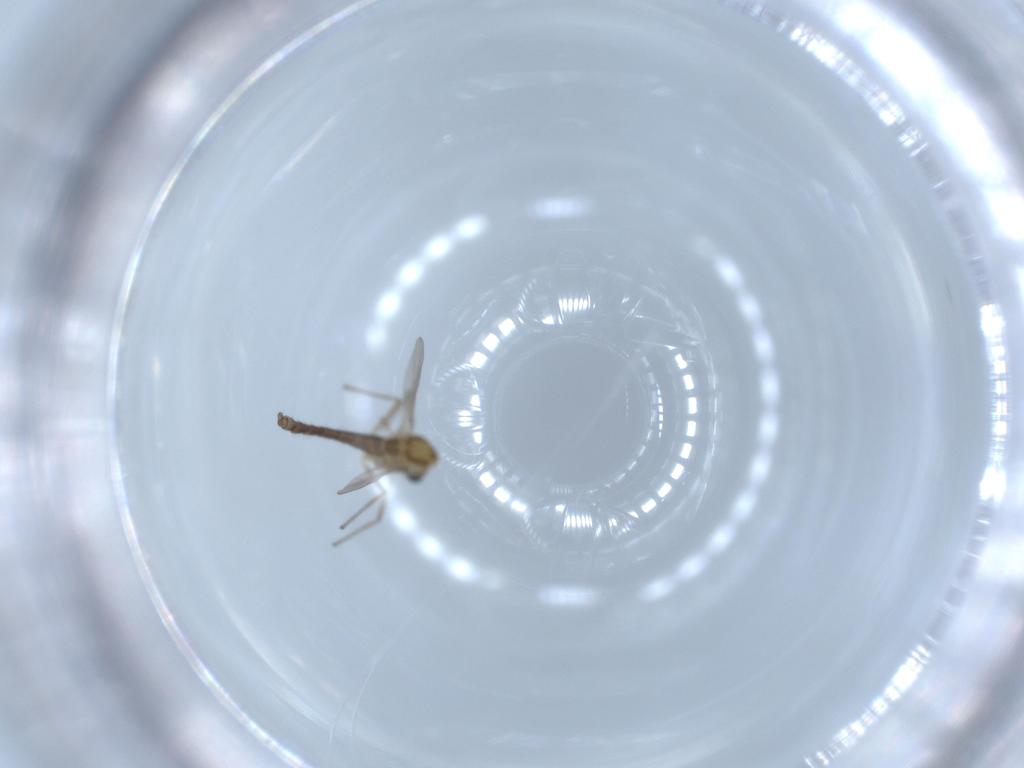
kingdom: Animalia
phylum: Arthropoda
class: Insecta
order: Diptera
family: Chironomidae
